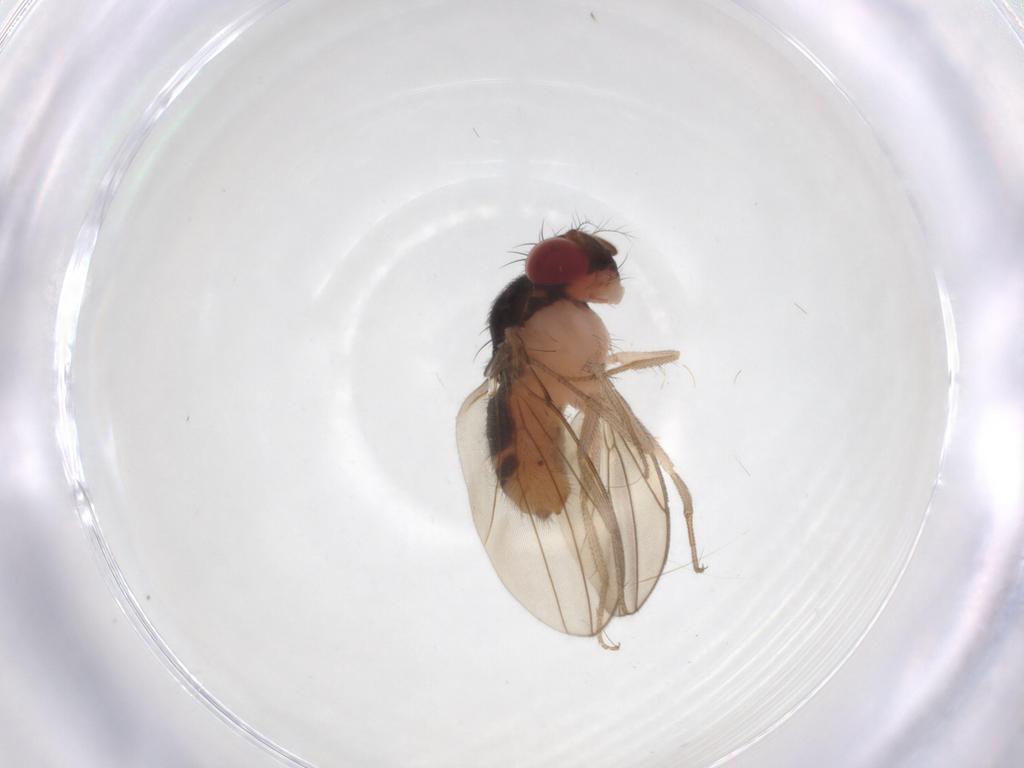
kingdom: Animalia
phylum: Arthropoda
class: Insecta
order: Diptera
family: Drosophilidae
